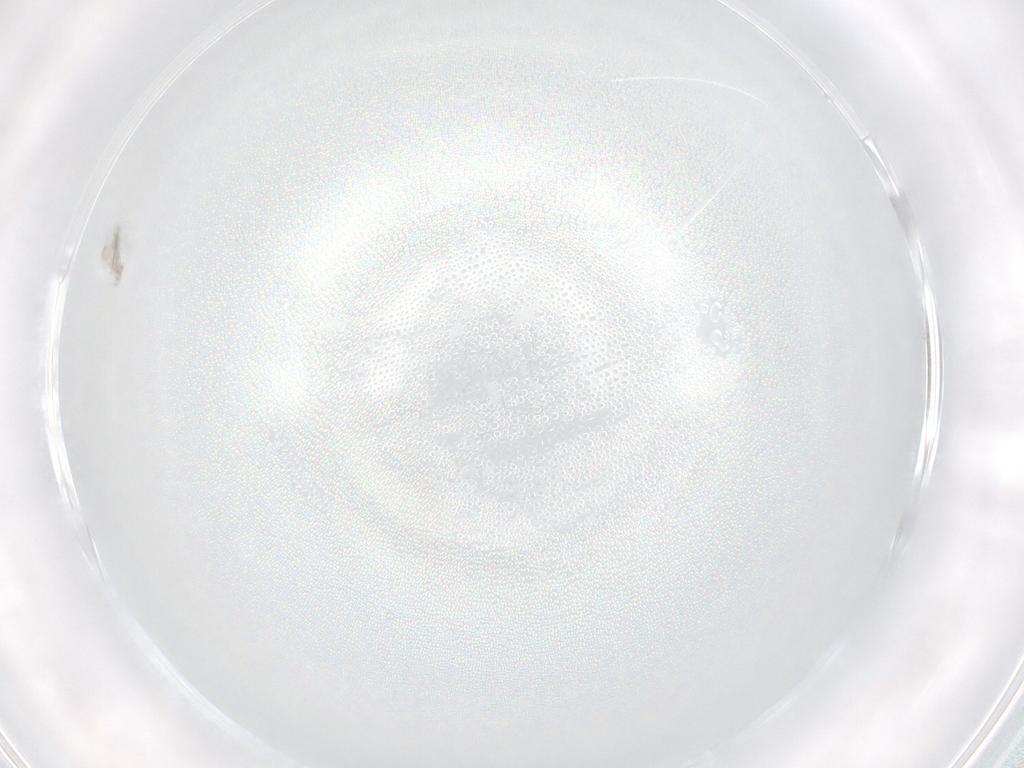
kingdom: Animalia
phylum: Arthropoda
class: Insecta
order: Diptera
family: Chironomidae
